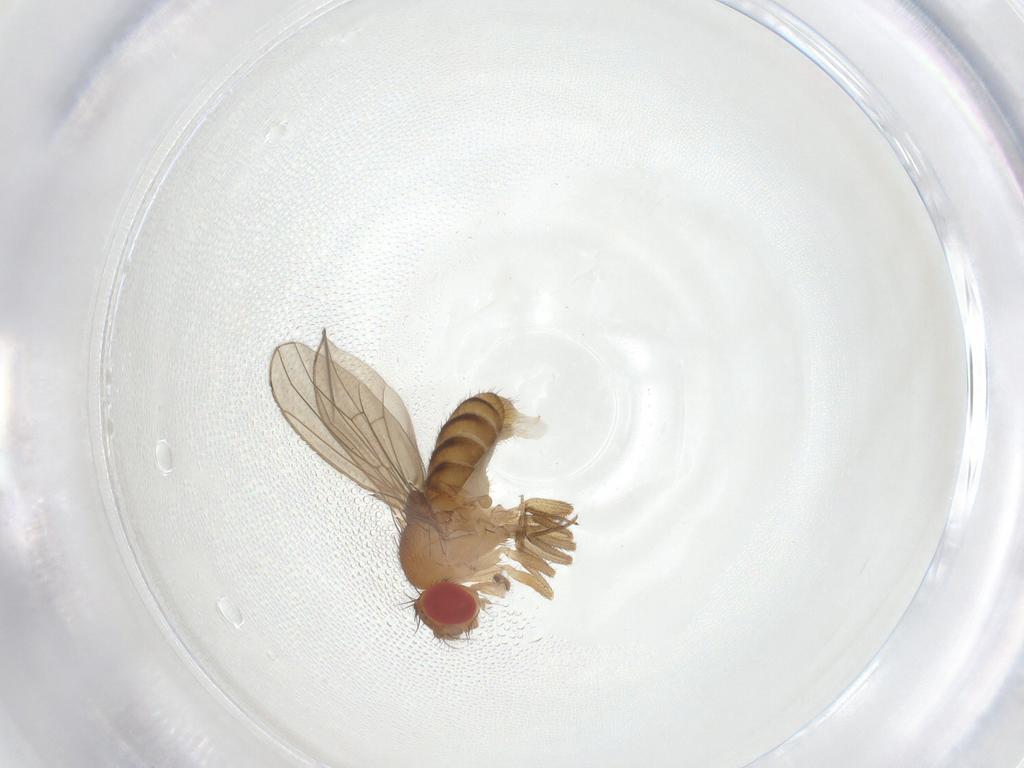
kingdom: Animalia
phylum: Arthropoda
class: Insecta
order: Diptera
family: Drosophilidae
